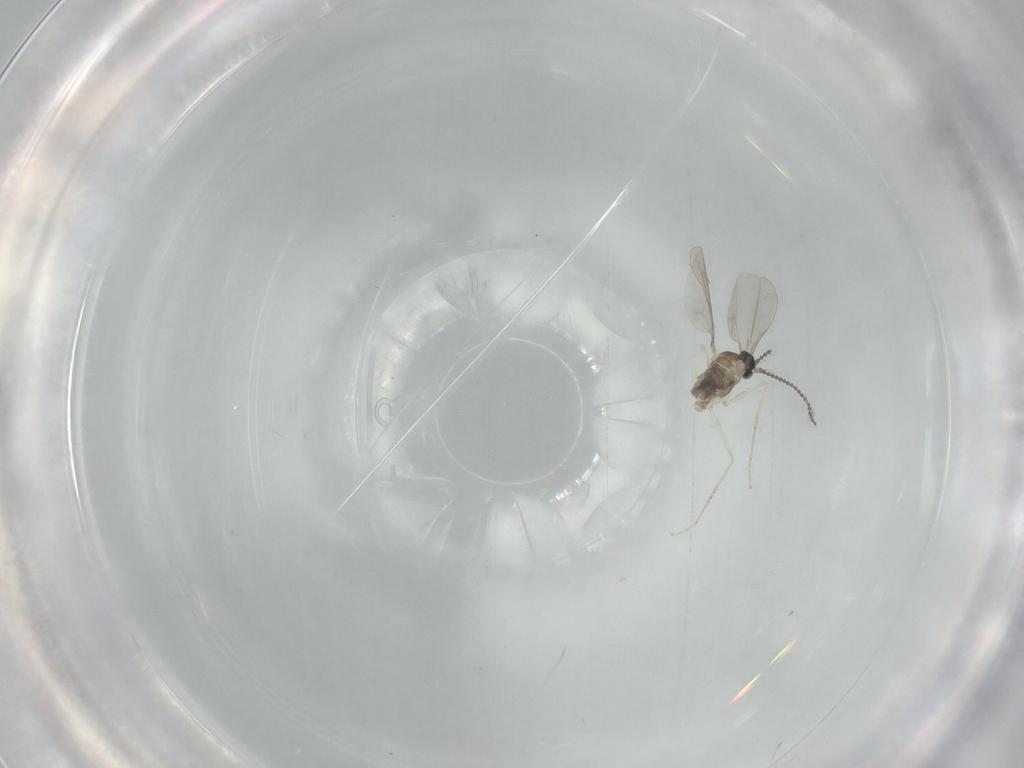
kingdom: Animalia
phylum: Arthropoda
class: Insecta
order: Diptera
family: Cecidomyiidae
